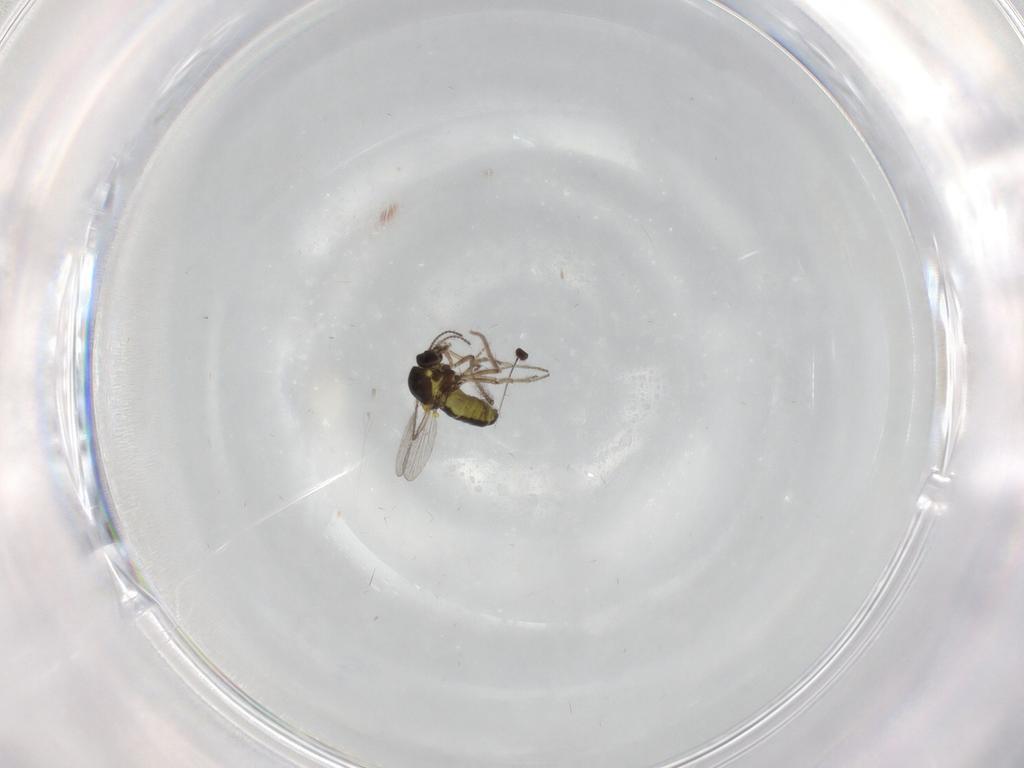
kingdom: Animalia
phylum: Arthropoda
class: Insecta
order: Diptera
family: Ceratopogonidae
